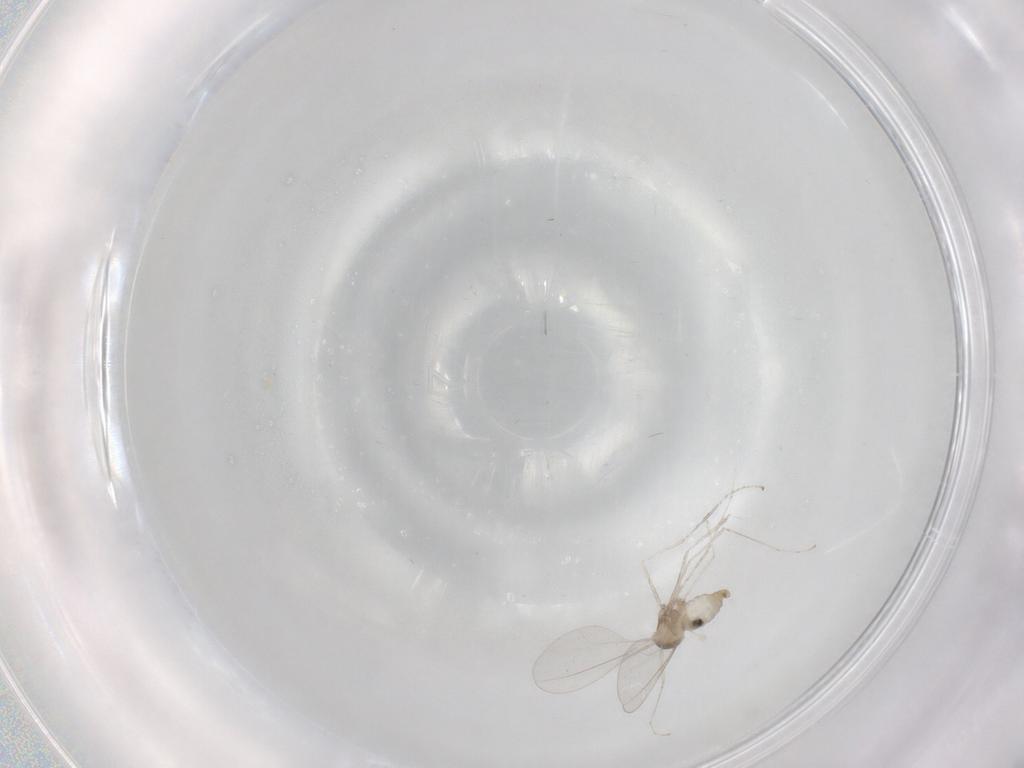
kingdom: Animalia
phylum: Arthropoda
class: Insecta
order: Diptera
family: Cecidomyiidae
